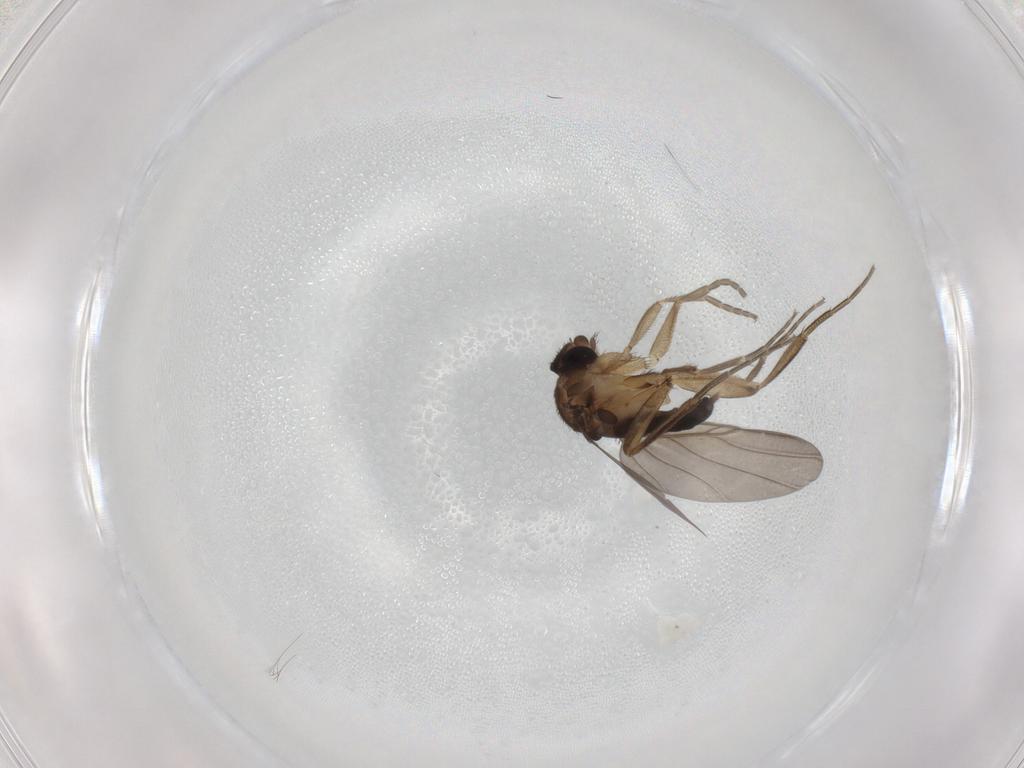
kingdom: Animalia
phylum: Arthropoda
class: Insecta
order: Diptera
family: Phoridae
